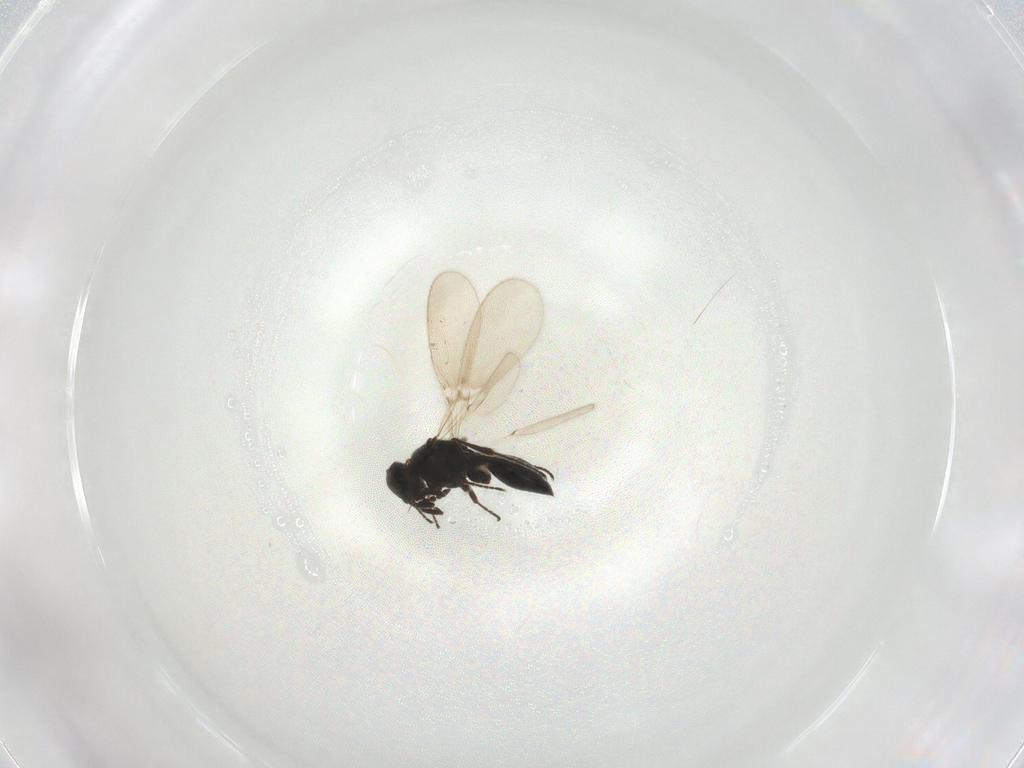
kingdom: Animalia
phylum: Arthropoda
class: Insecta
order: Hymenoptera
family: Platygastridae
